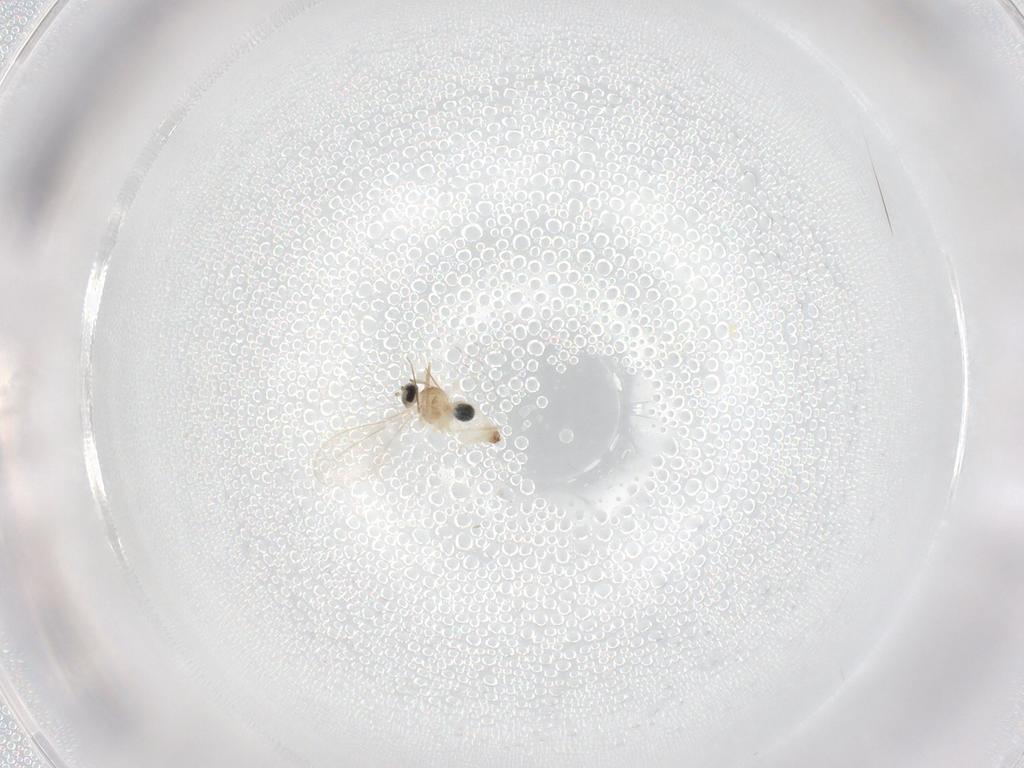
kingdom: Animalia
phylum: Arthropoda
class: Insecta
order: Diptera
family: Cecidomyiidae
